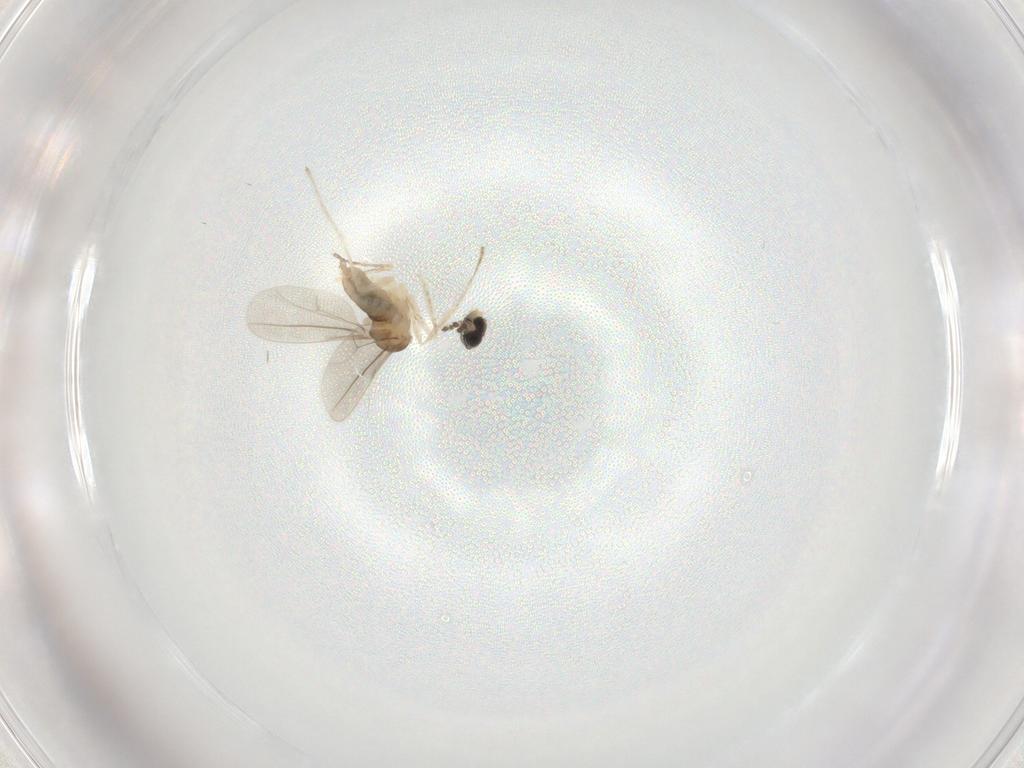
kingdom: Animalia
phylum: Arthropoda
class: Insecta
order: Diptera
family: Cecidomyiidae
